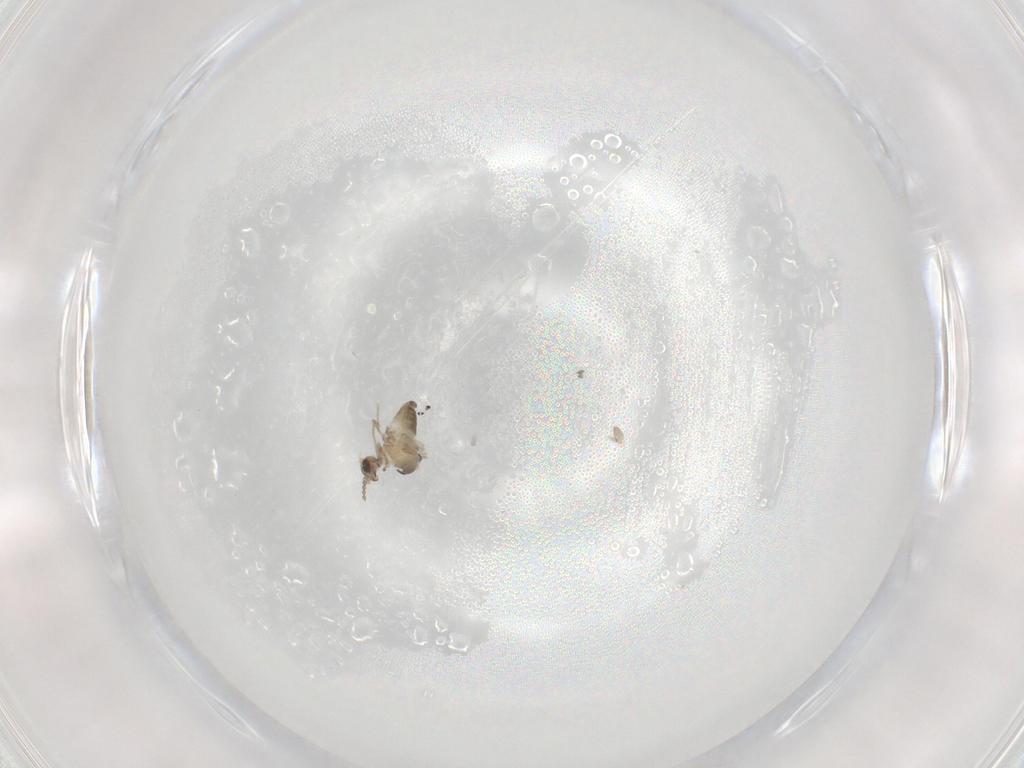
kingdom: Animalia
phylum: Arthropoda
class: Insecta
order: Diptera
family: Cecidomyiidae
